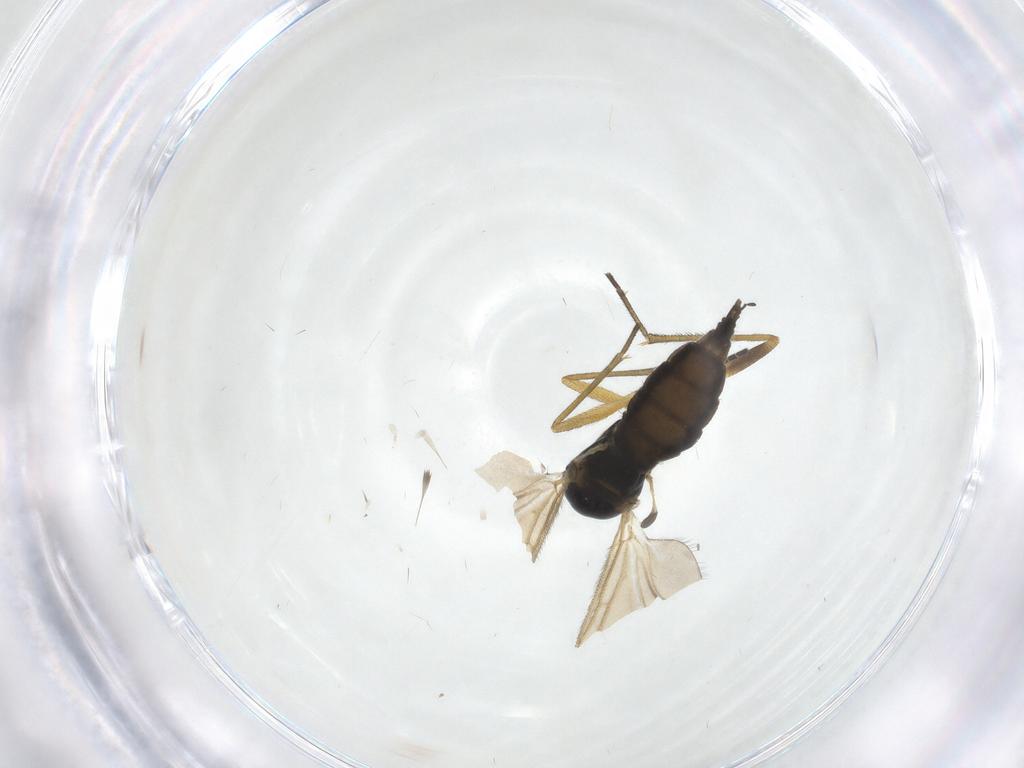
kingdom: Animalia
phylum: Arthropoda
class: Insecta
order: Diptera
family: Sciaridae
